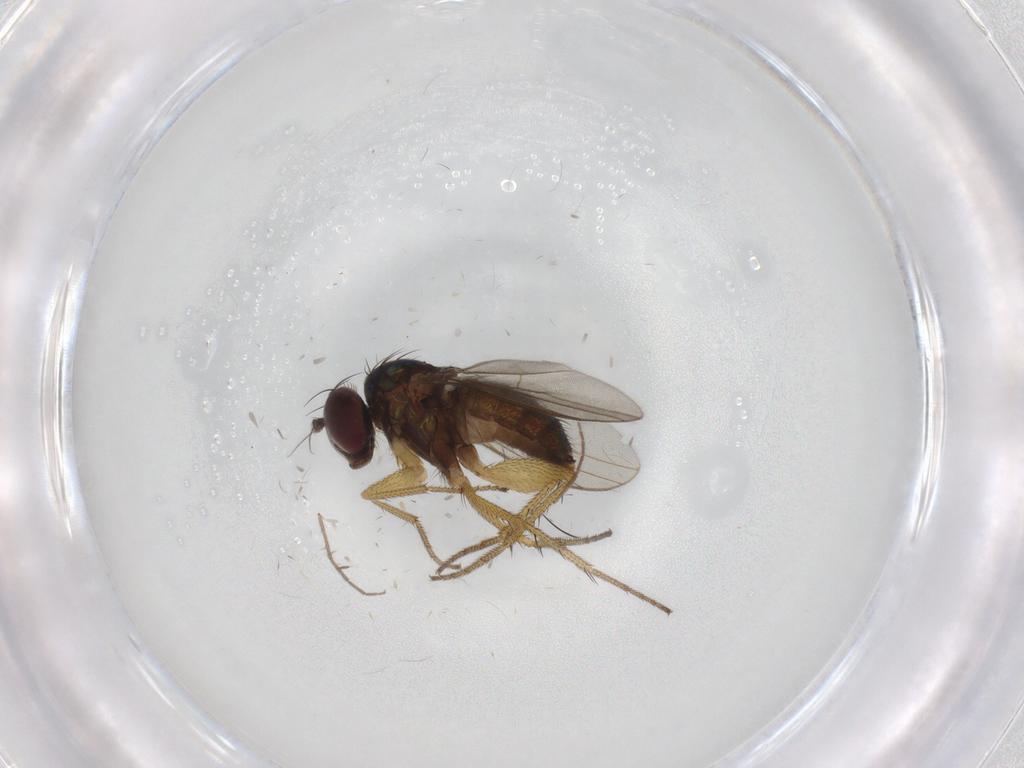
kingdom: Animalia
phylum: Arthropoda
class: Insecta
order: Diptera
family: Dolichopodidae
